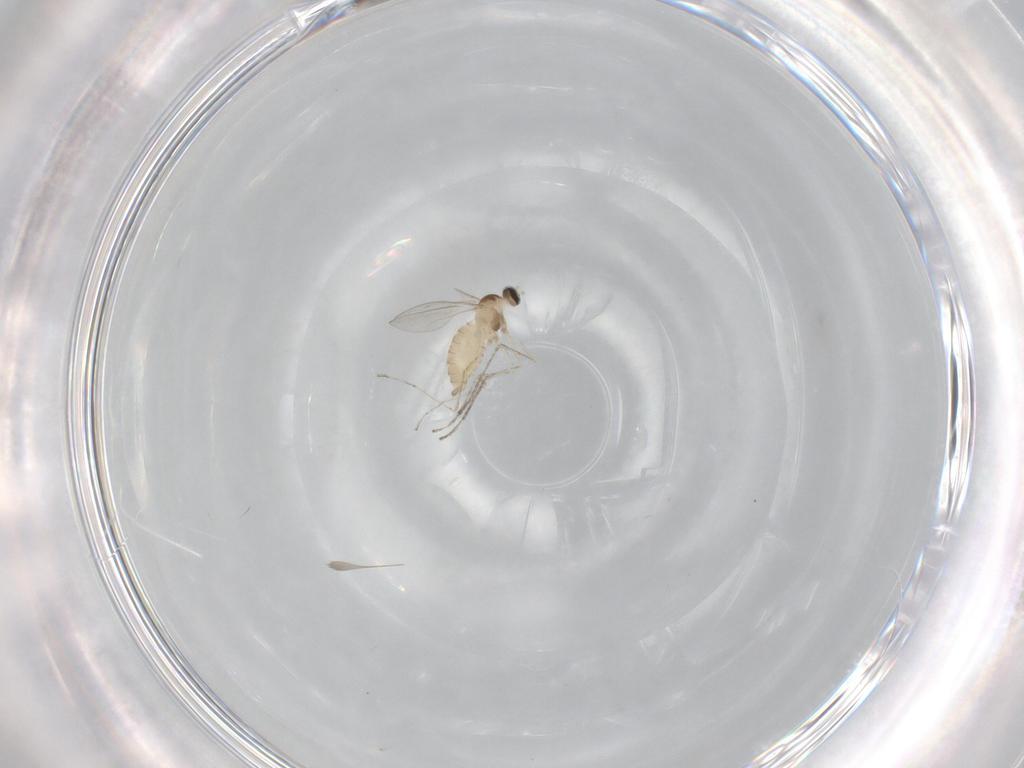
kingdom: Animalia
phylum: Arthropoda
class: Insecta
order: Diptera
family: Cecidomyiidae
